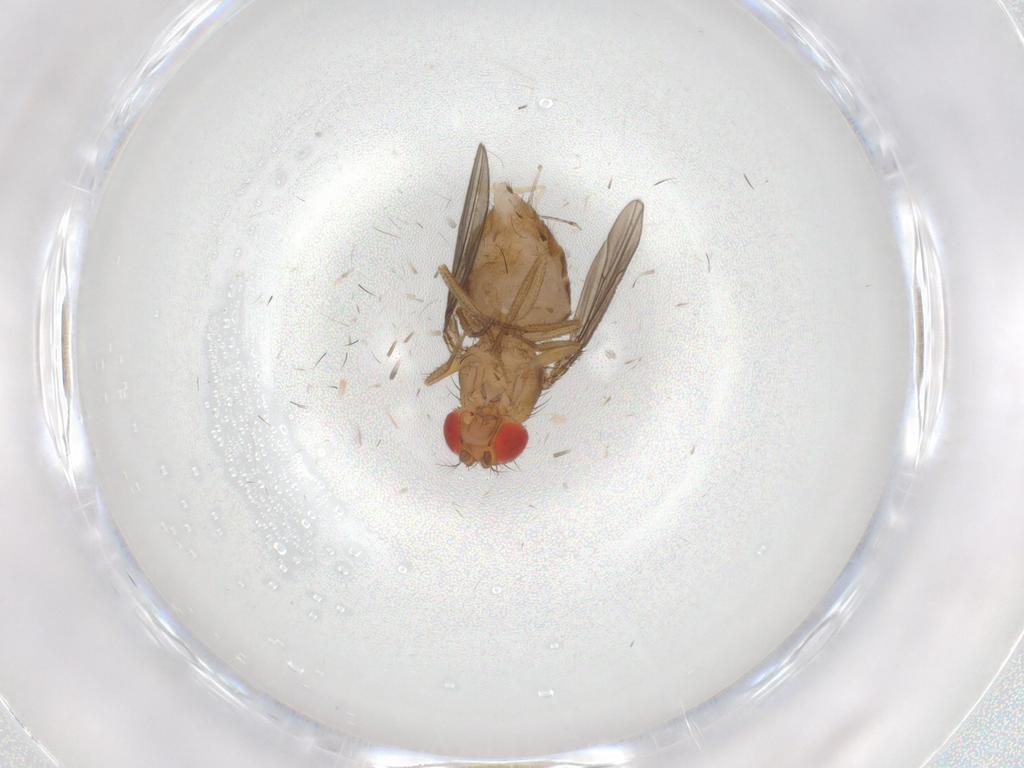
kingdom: Animalia
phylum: Arthropoda
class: Insecta
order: Diptera
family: Drosophilidae
